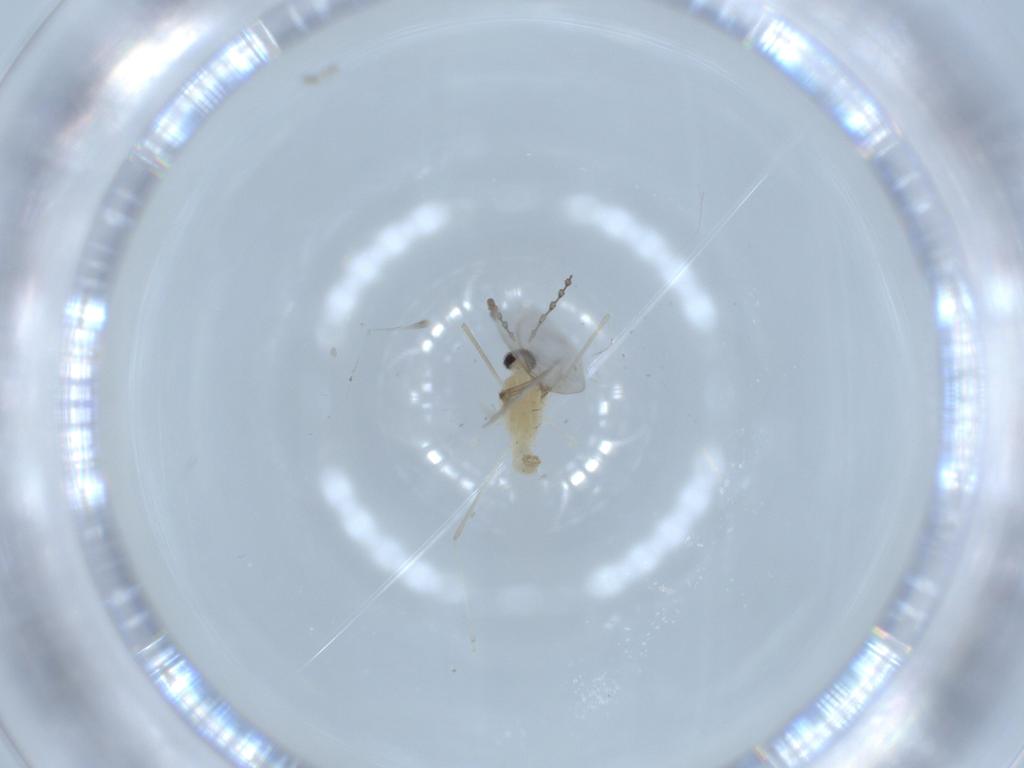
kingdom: Animalia
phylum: Arthropoda
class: Insecta
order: Diptera
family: Cecidomyiidae
